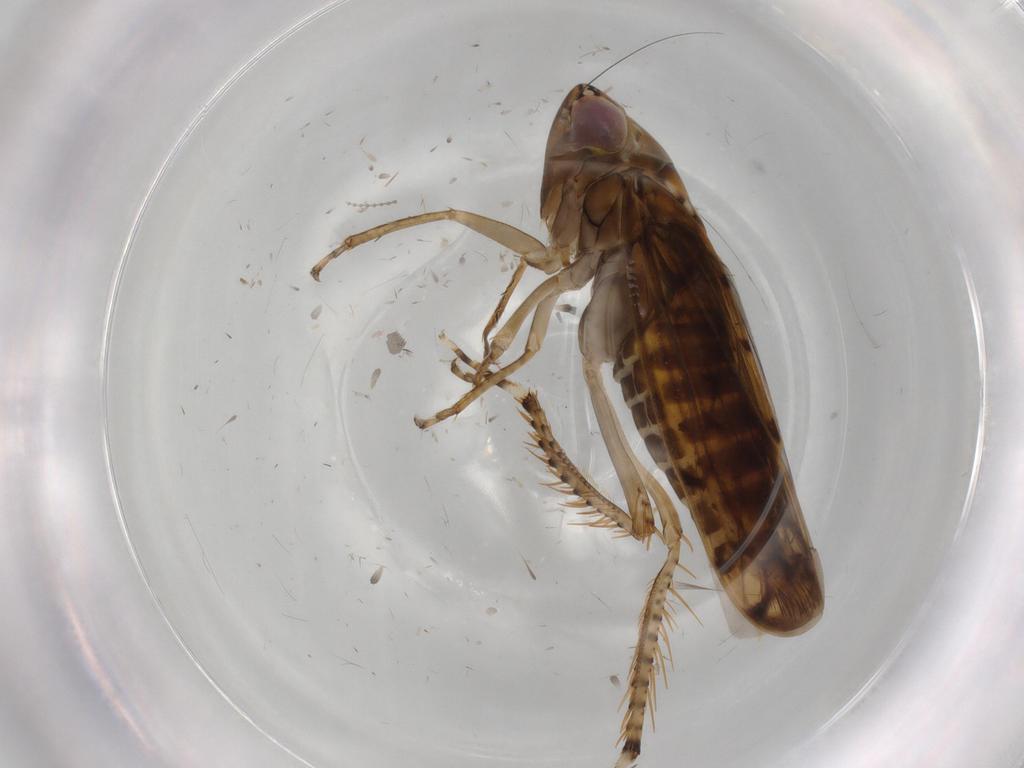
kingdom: Animalia
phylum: Arthropoda
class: Insecta
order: Hemiptera
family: Cicadellidae
